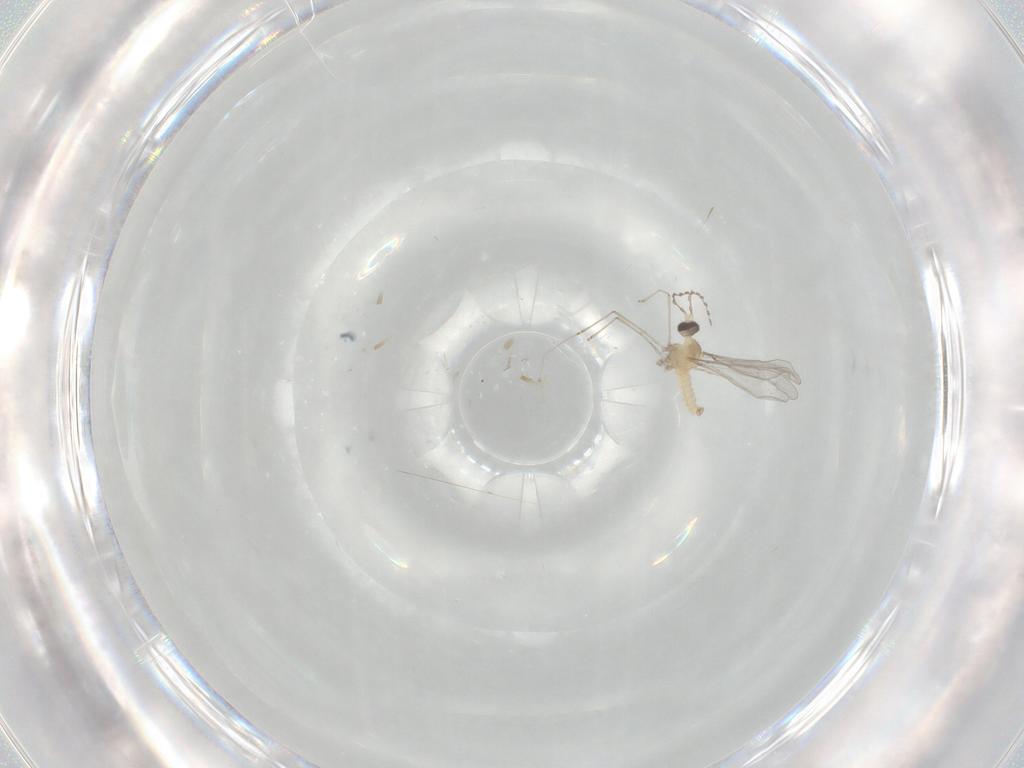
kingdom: Animalia
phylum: Arthropoda
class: Insecta
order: Diptera
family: Cecidomyiidae
